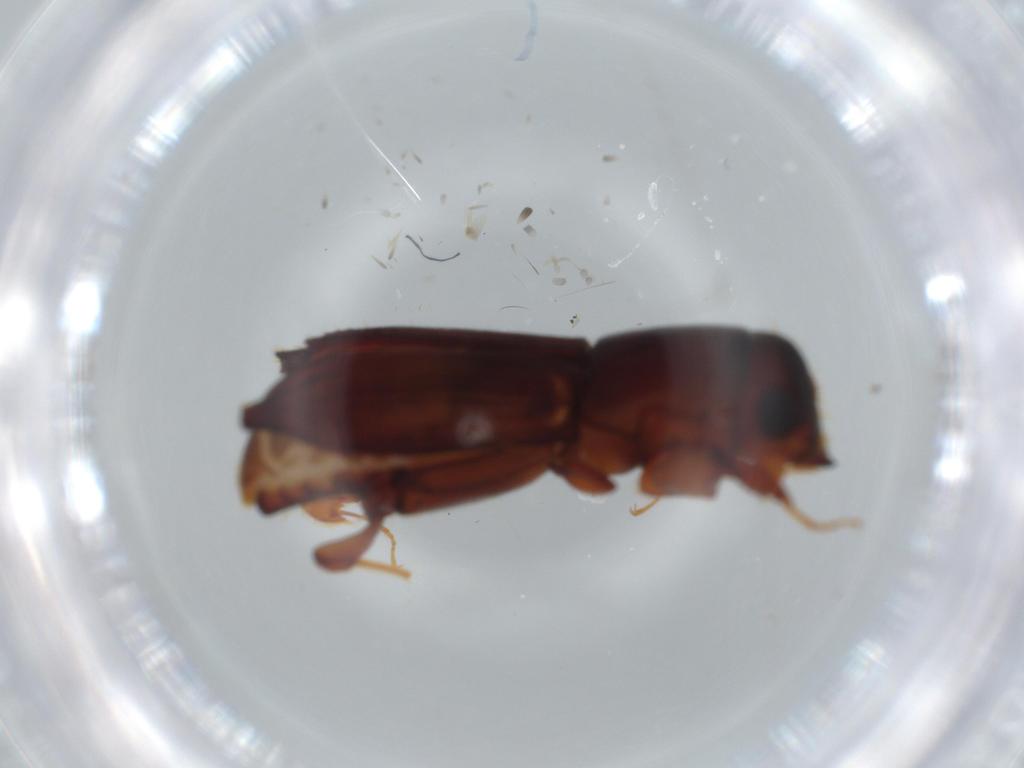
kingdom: Animalia
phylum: Arthropoda
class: Insecta
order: Coleoptera
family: Curculionidae
